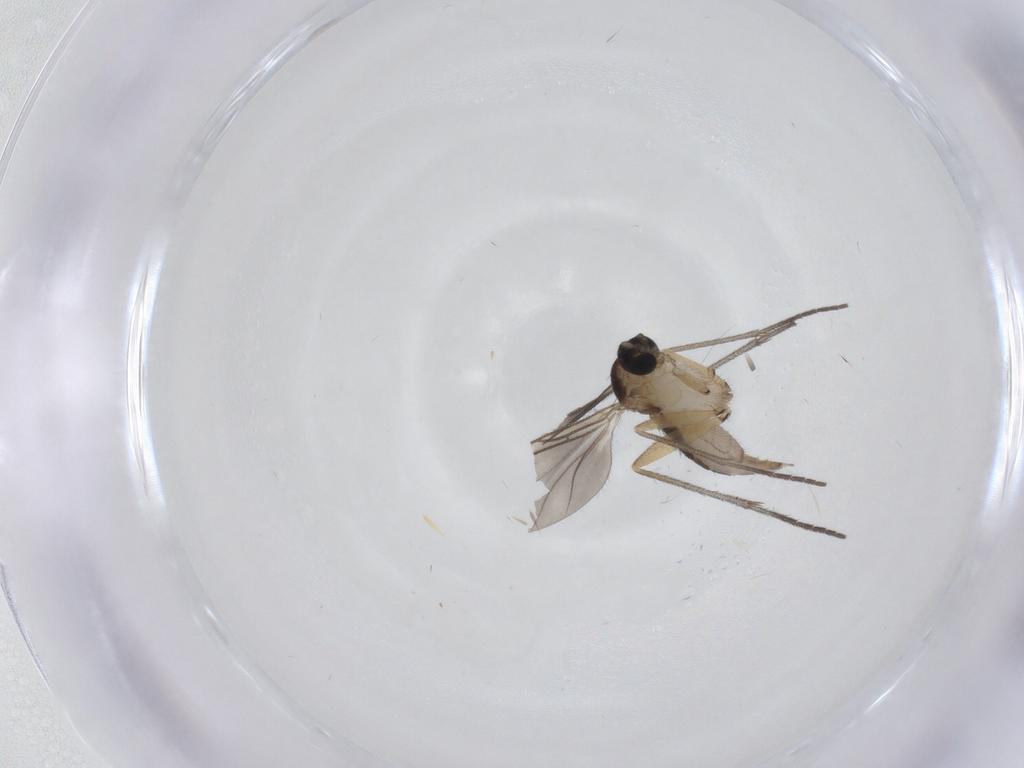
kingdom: Animalia
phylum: Arthropoda
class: Insecta
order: Diptera
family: Sciaridae
